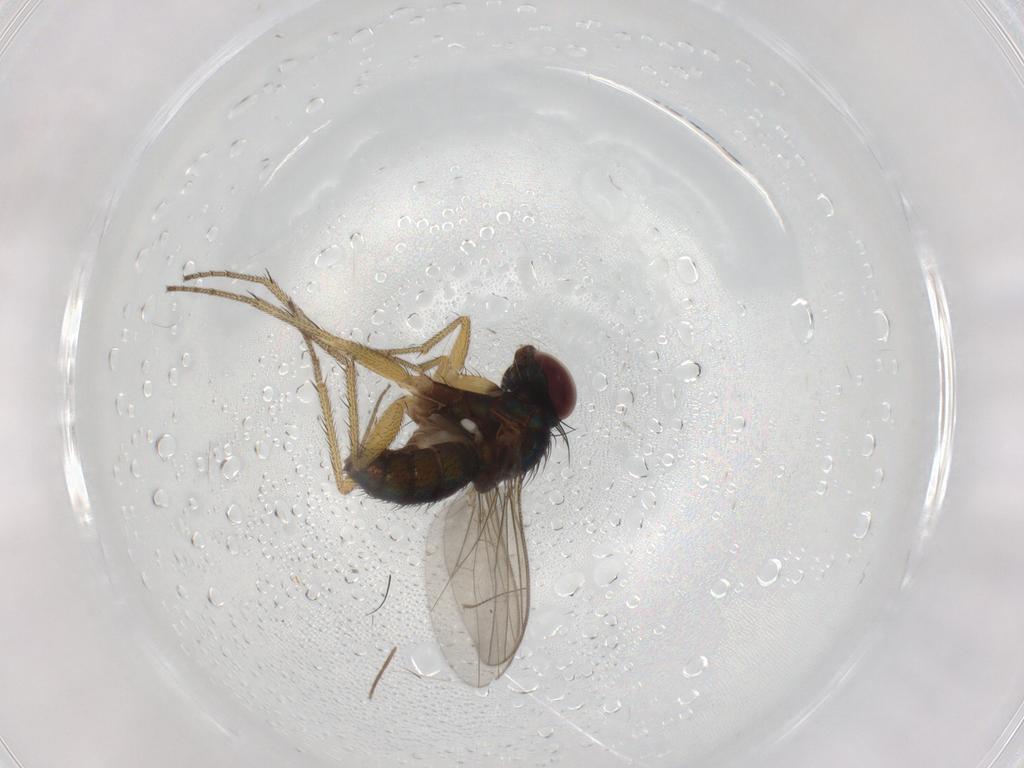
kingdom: Animalia
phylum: Arthropoda
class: Insecta
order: Diptera
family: Chironomidae
